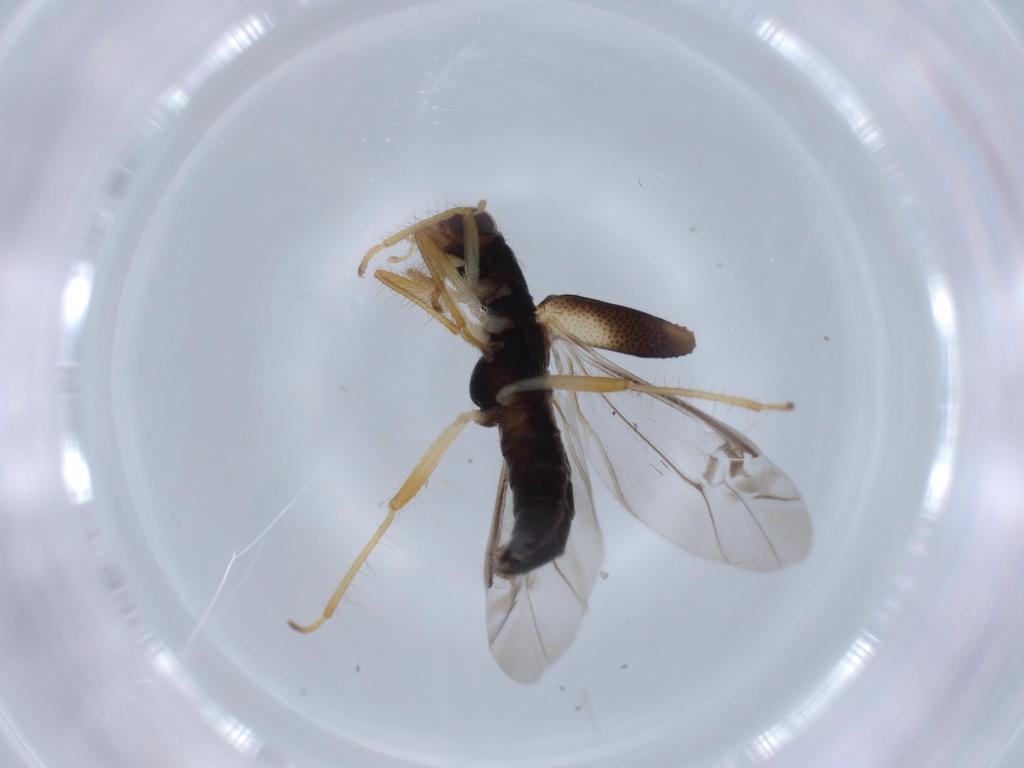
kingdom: Animalia
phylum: Arthropoda
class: Insecta
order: Coleoptera
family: Cleridae
